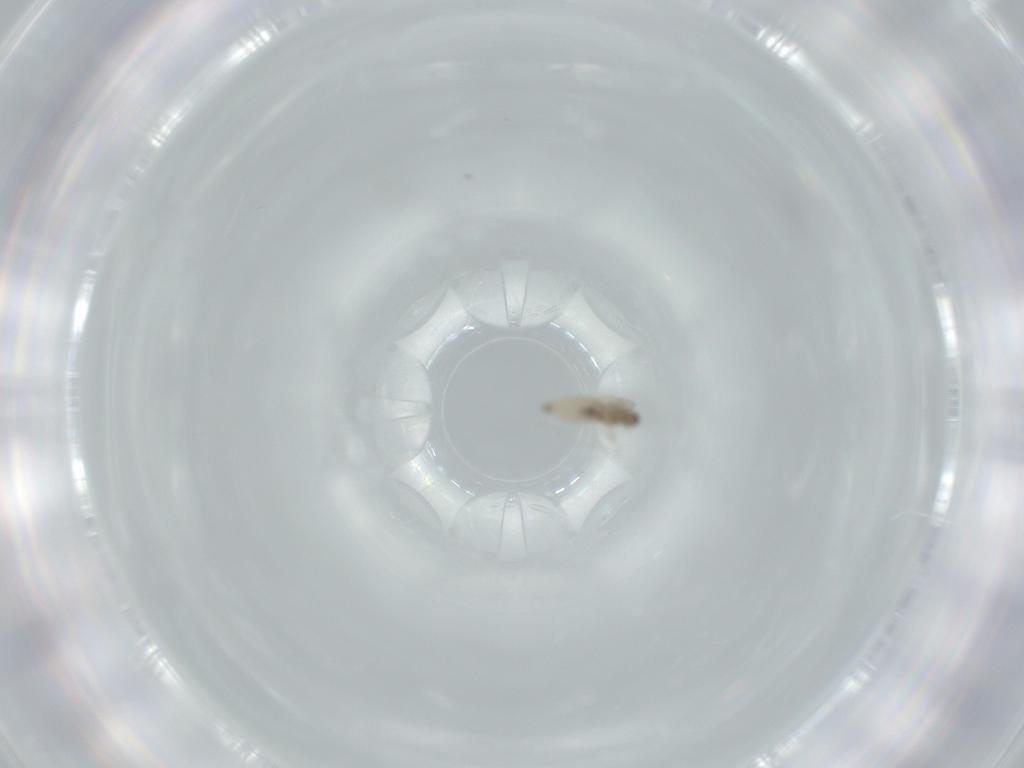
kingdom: Animalia
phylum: Arthropoda
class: Insecta
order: Diptera
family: Cecidomyiidae
